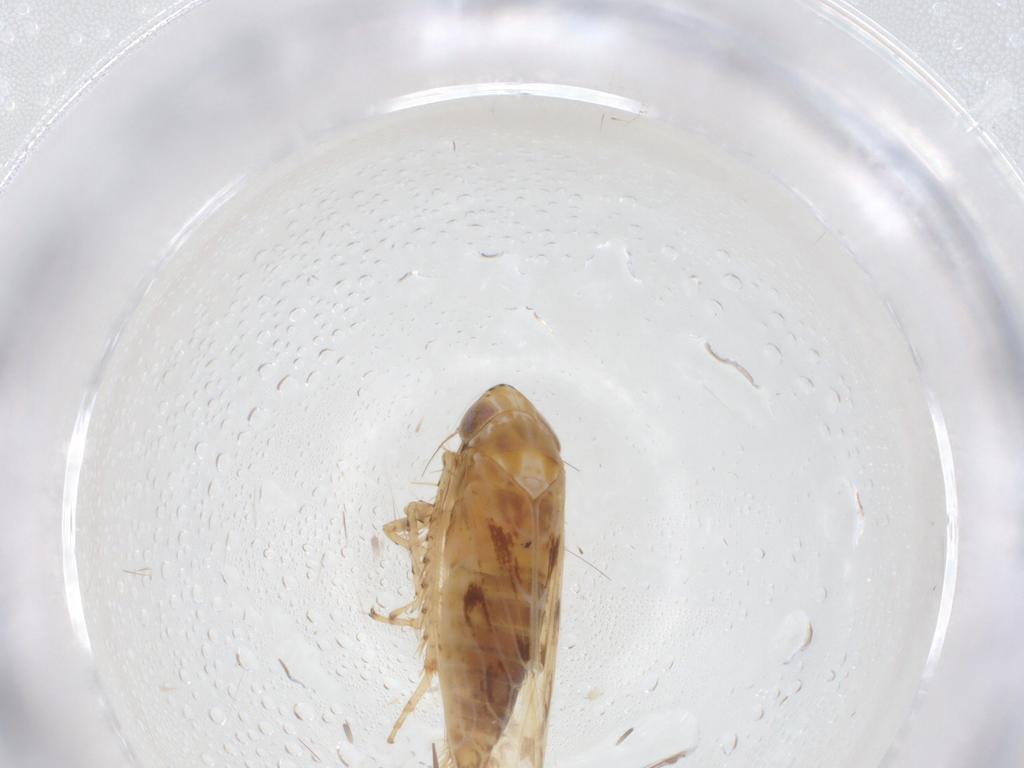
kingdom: Animalia
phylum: Arthropoda
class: Insecta
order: Hemiptera
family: Cicadellidae
